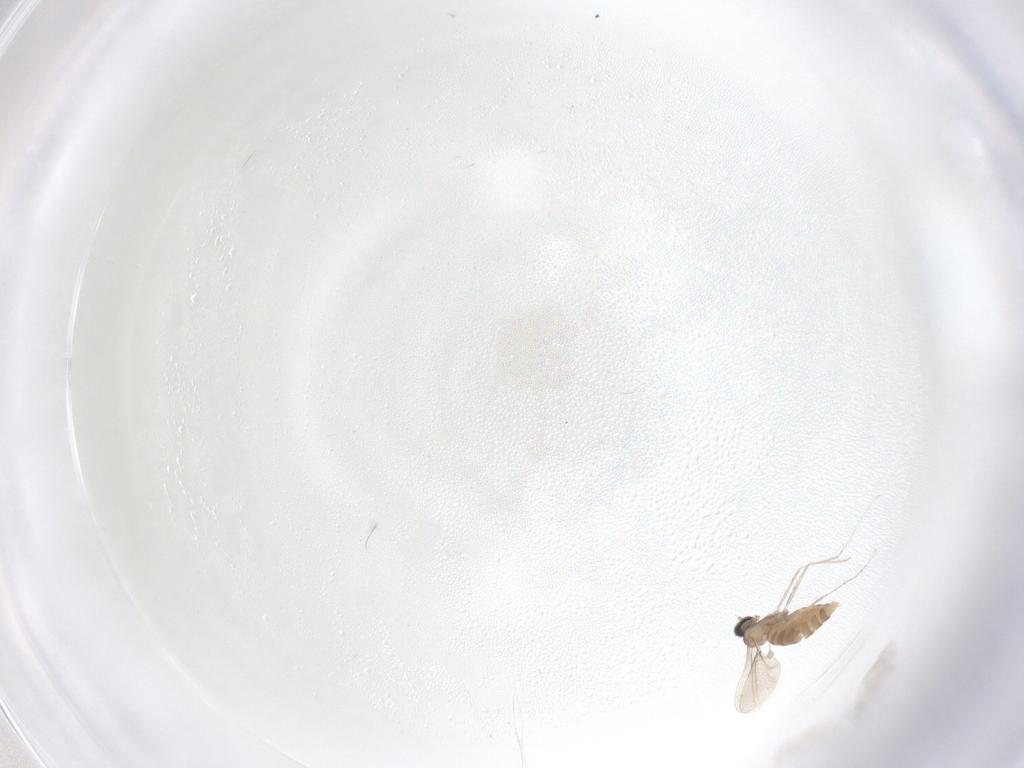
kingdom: Animalia
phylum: Arthropoda
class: Insecta
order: Diptera
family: Cecidomyiidae
